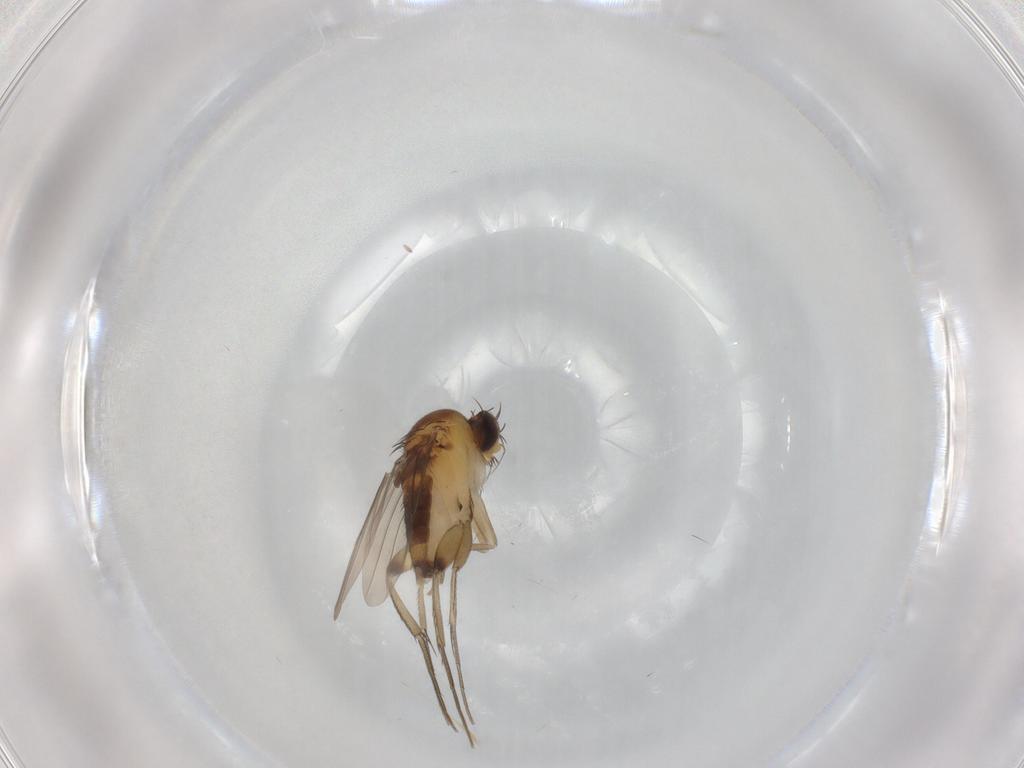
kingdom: Animalia
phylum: Arthropoda
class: Insecta
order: Diptera
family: Phoridae
